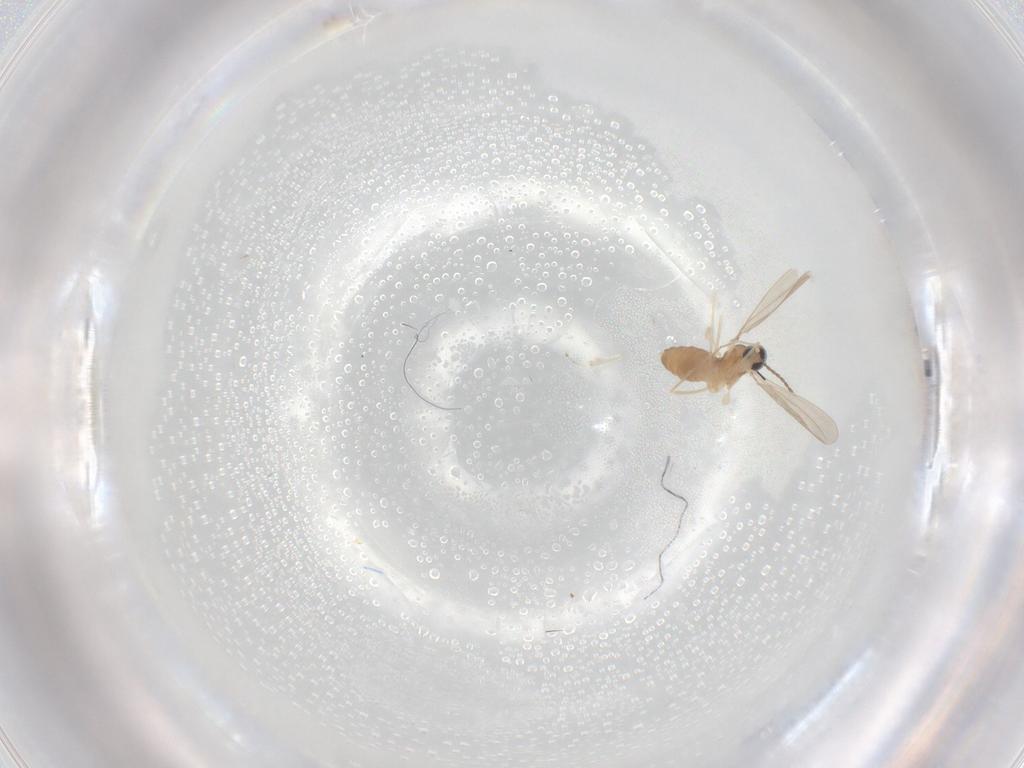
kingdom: Animalia
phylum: Arthropoda
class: Insecta
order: Diptera
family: Cecidomyiidae
